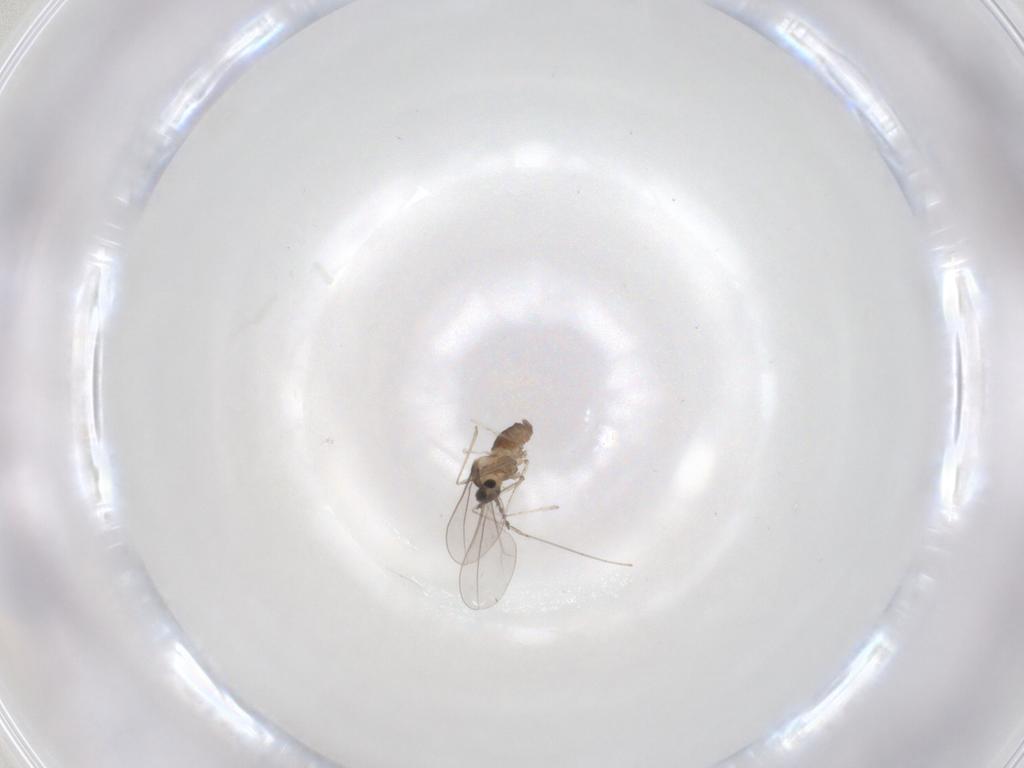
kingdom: Animalia
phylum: Arthropoda
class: Insecta
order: Diptera
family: Cecidomyiidae
